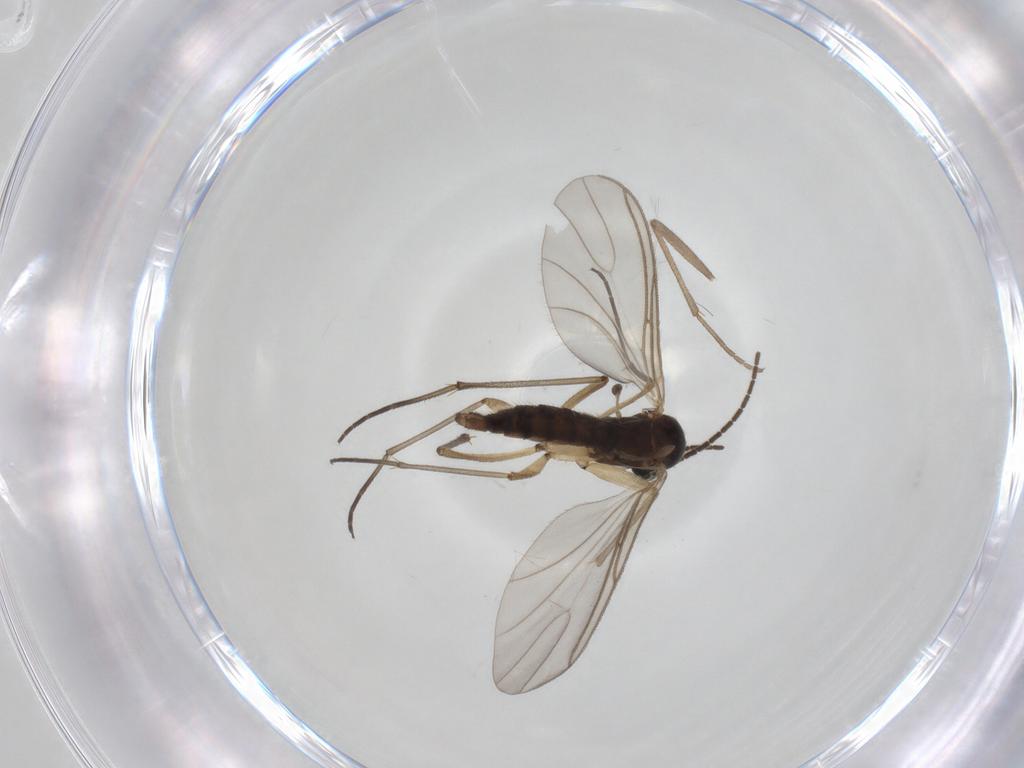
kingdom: Animalia
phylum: Arthropoda
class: Insecta
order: Diptera
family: Sciaridae
